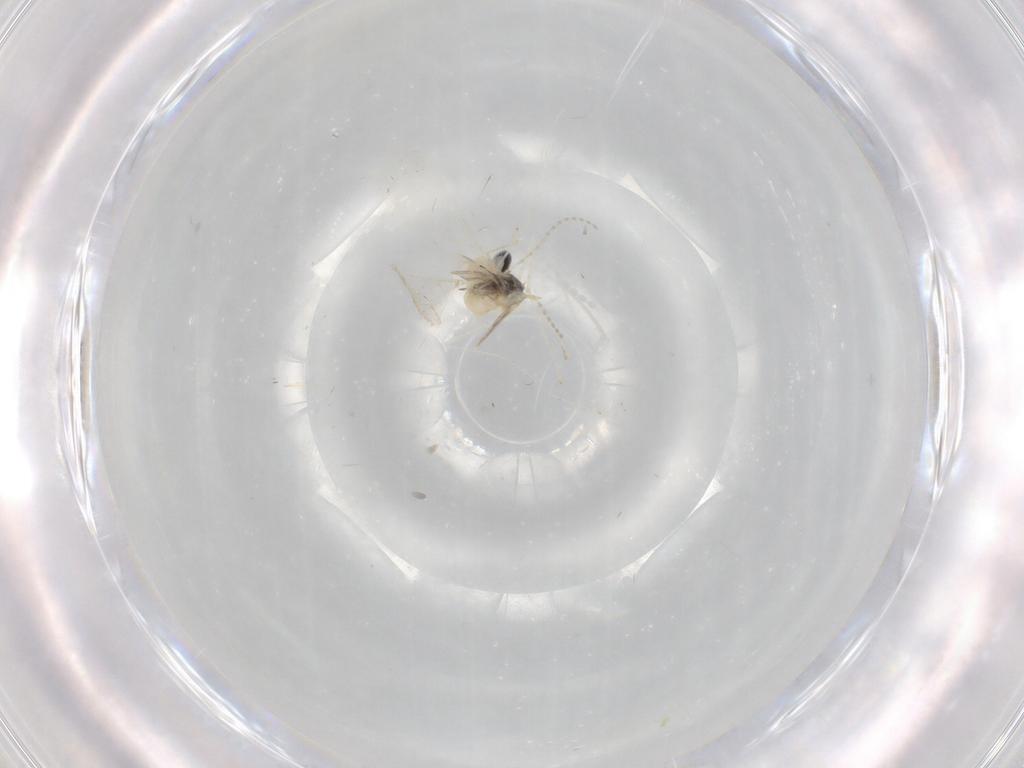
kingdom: Animalia
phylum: Arthropoda
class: Insecta
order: Diptera
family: Cecidomyiidae
